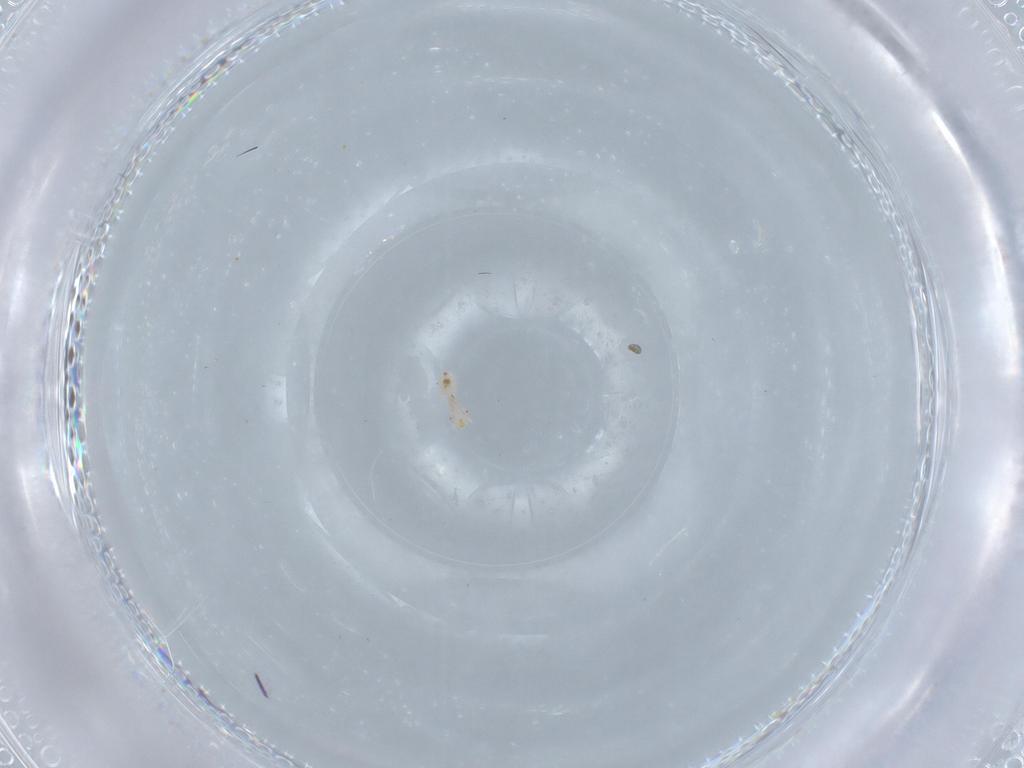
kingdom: Animalia
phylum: Arthropoda
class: Insecta
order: Psocodea
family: Liposcelididae
